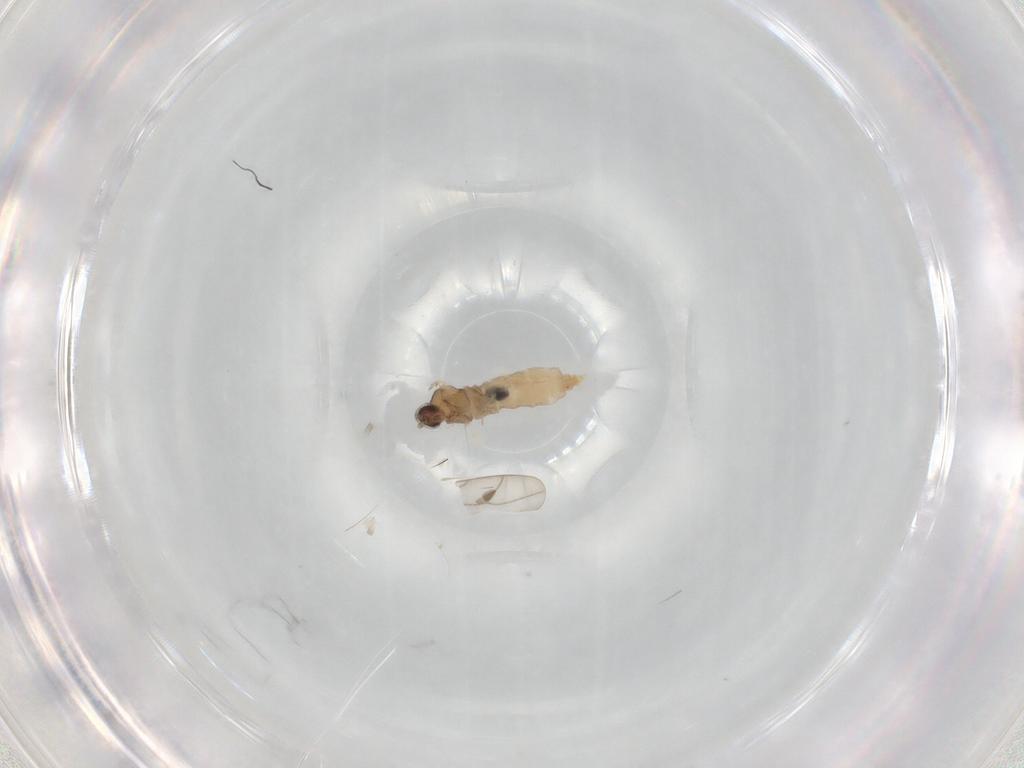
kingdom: Animalia
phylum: Arthropoda
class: Insecta
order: Diptera
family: Cecidomyiidae
